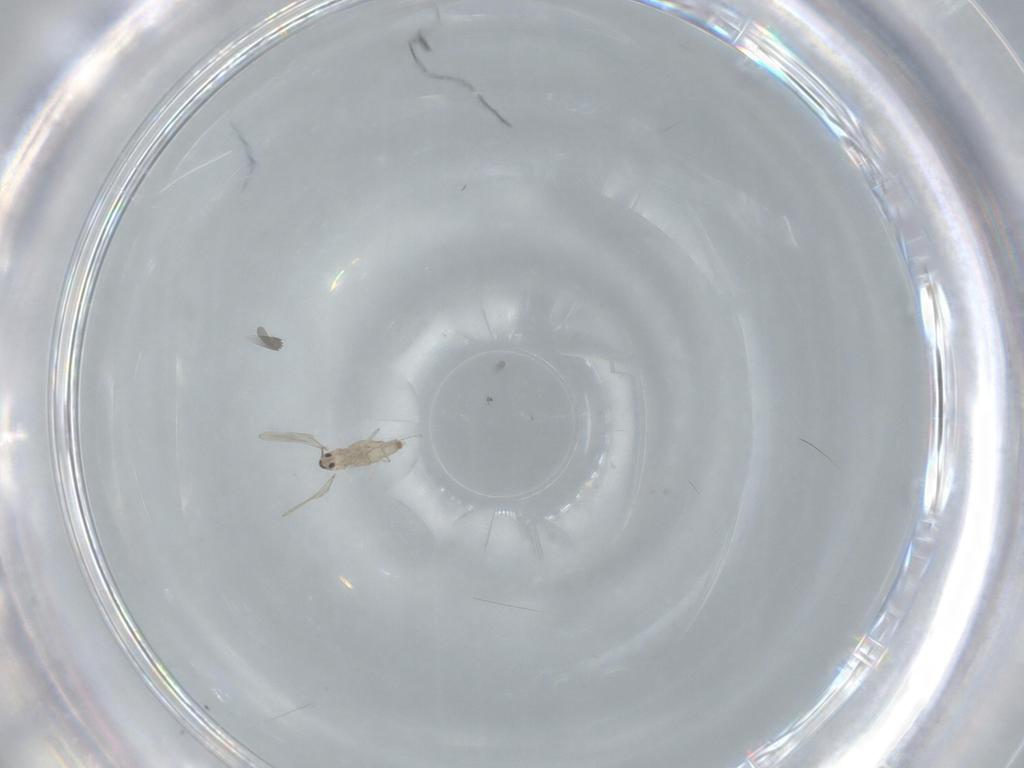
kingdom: Animalia
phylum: Arthropoda
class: Insecta
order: Diptera
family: Cecidomyiidae
